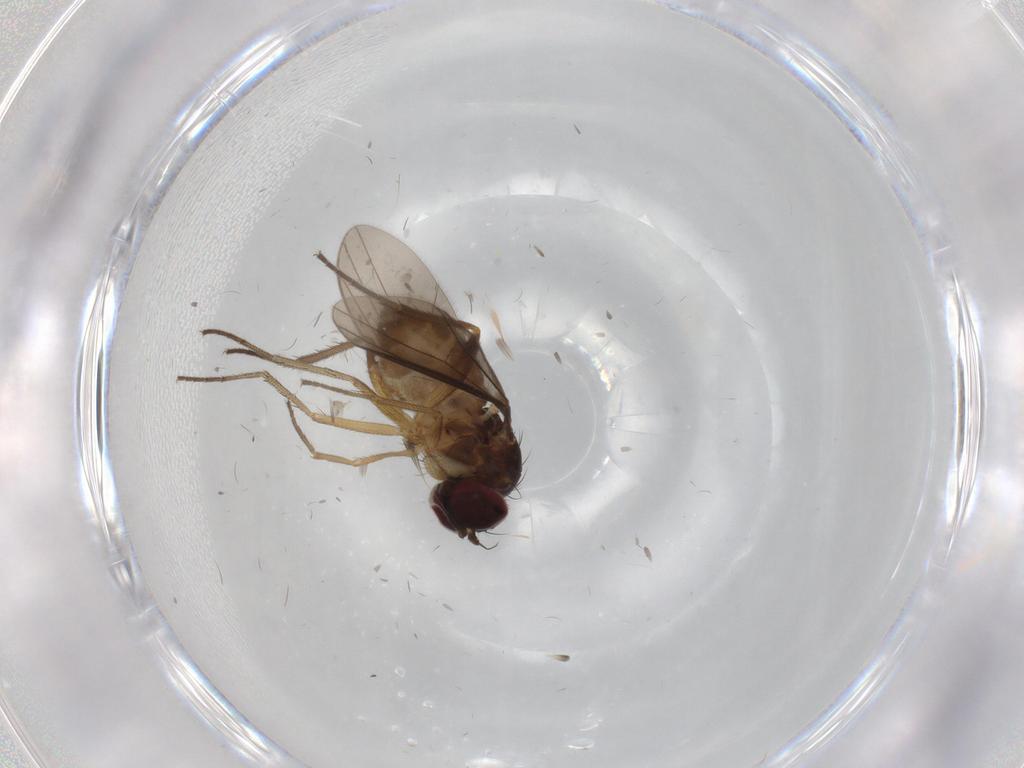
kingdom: Animalia
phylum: Arthropoda
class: Insecta
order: Diptera
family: Dolichopodidae
